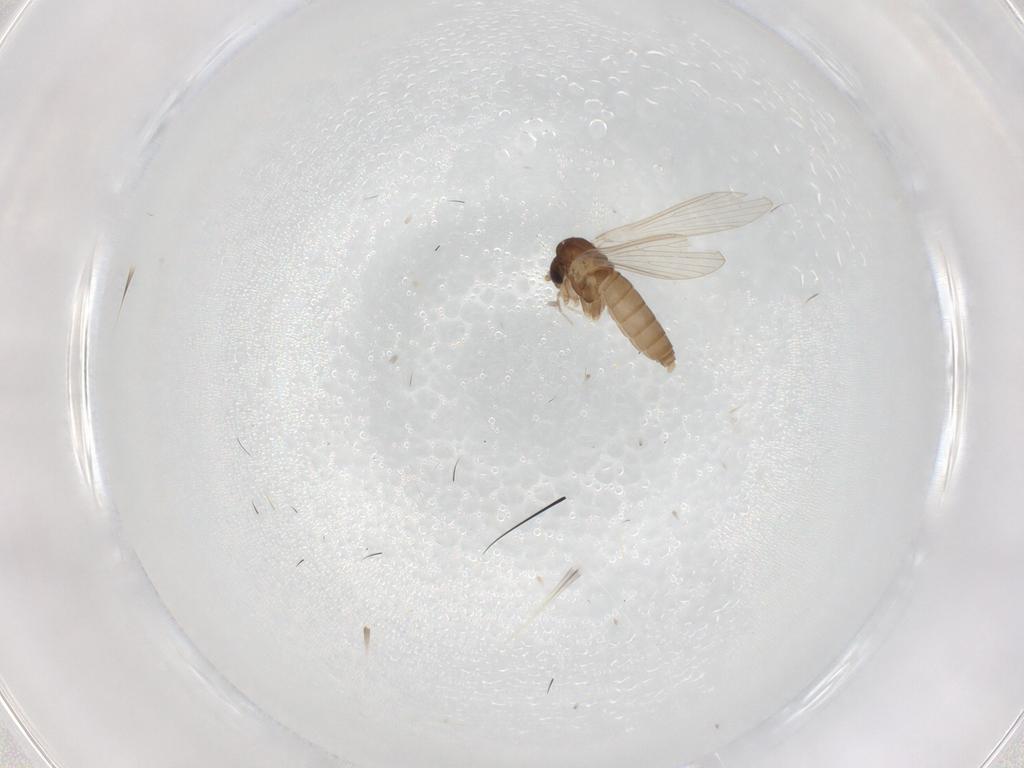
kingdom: Animalia
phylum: Arthropoda
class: Insecta
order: Diptera
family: Psychodidae
